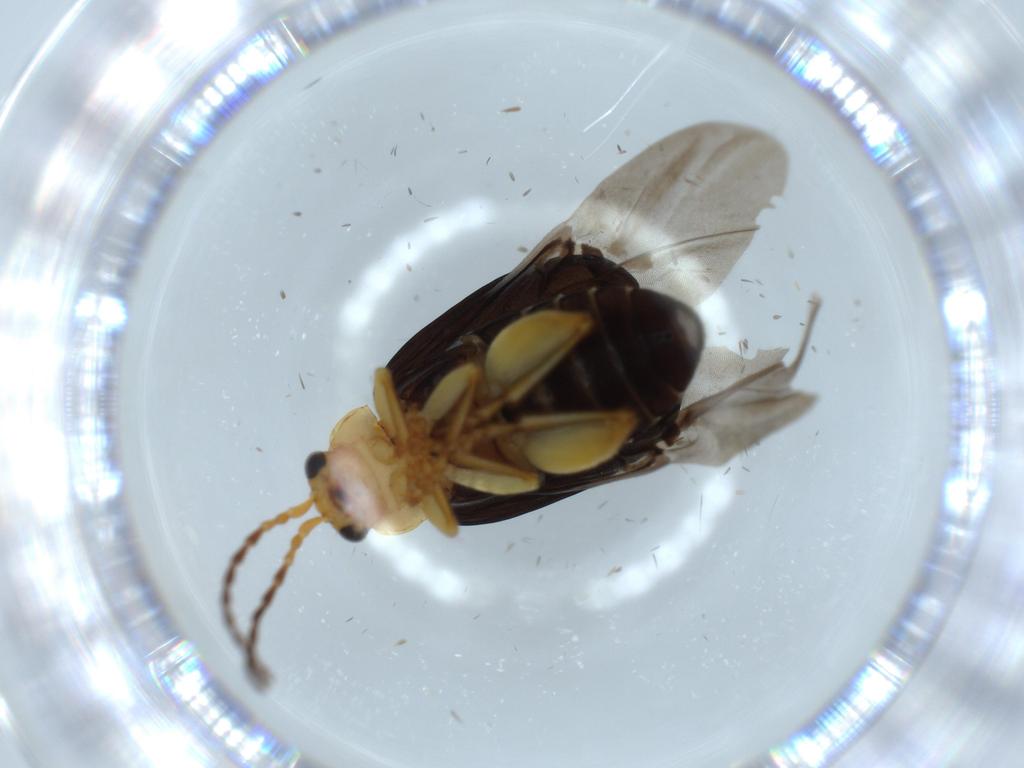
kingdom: Animalia
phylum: Arthropoda
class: Insecta
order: Coleoptera
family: Chrysomelidae
